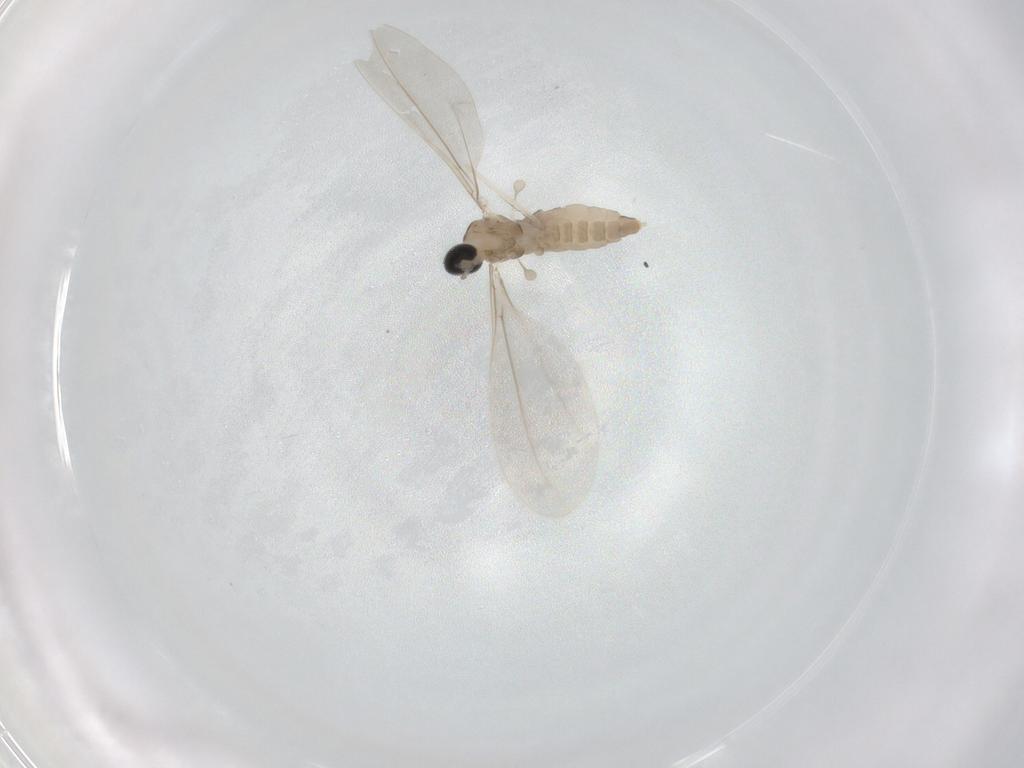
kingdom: Animalia
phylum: Arthropoda
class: Insecta
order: Diptera
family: Cecidomyiidae
